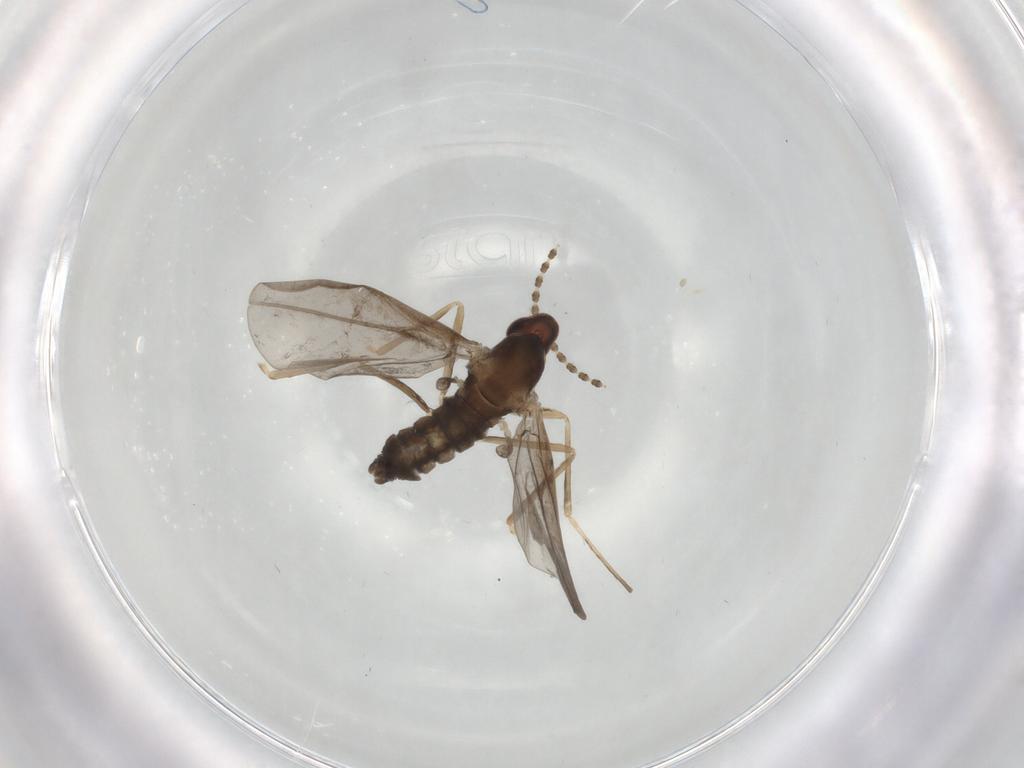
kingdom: Animalia
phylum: Arthropoda
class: Insecta
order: Diptera
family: Cecidomyiidae
